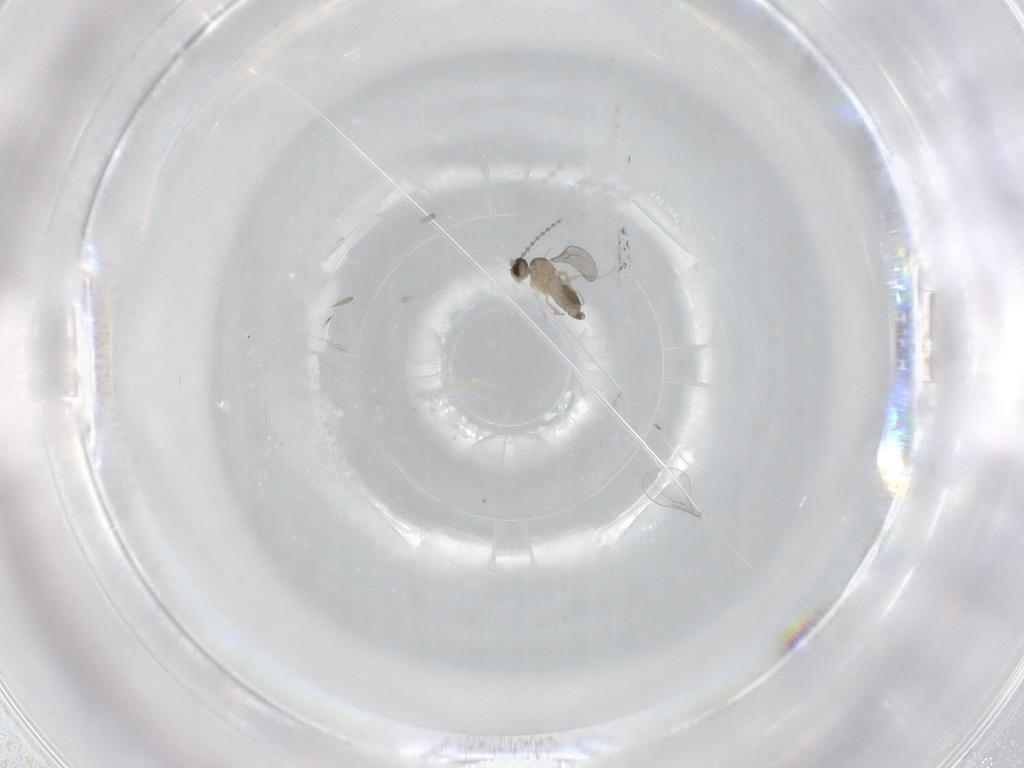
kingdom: Animalia
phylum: Arthropoda
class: Insecta
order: Diptera
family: Cecidomyiidae
